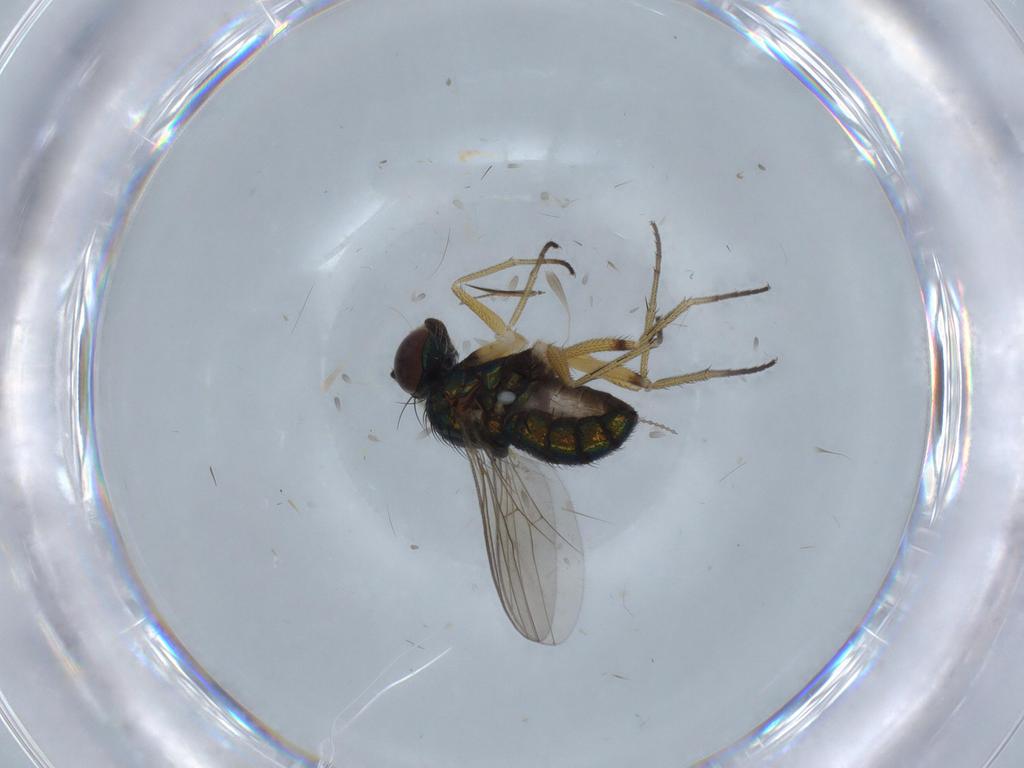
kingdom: Animalia
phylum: Arthropoda
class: Insecta
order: Diptera
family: Ceratopogonidae
